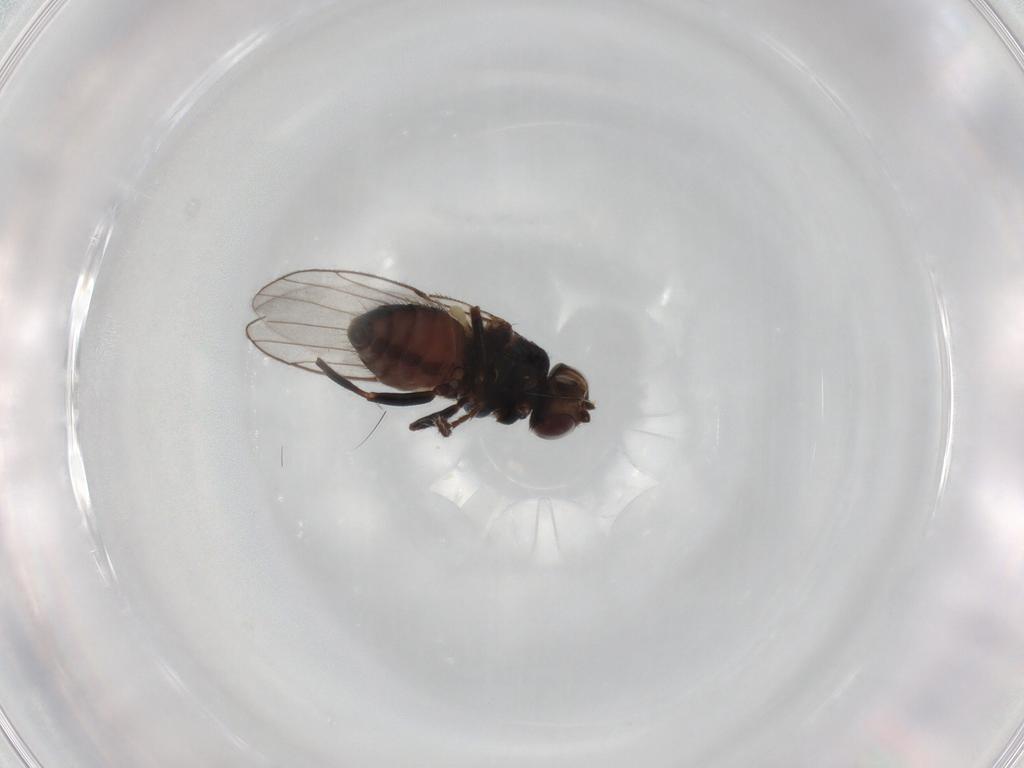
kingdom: Animalia
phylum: Arthropoda
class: Insecta
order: Diptera
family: Chloropidae
